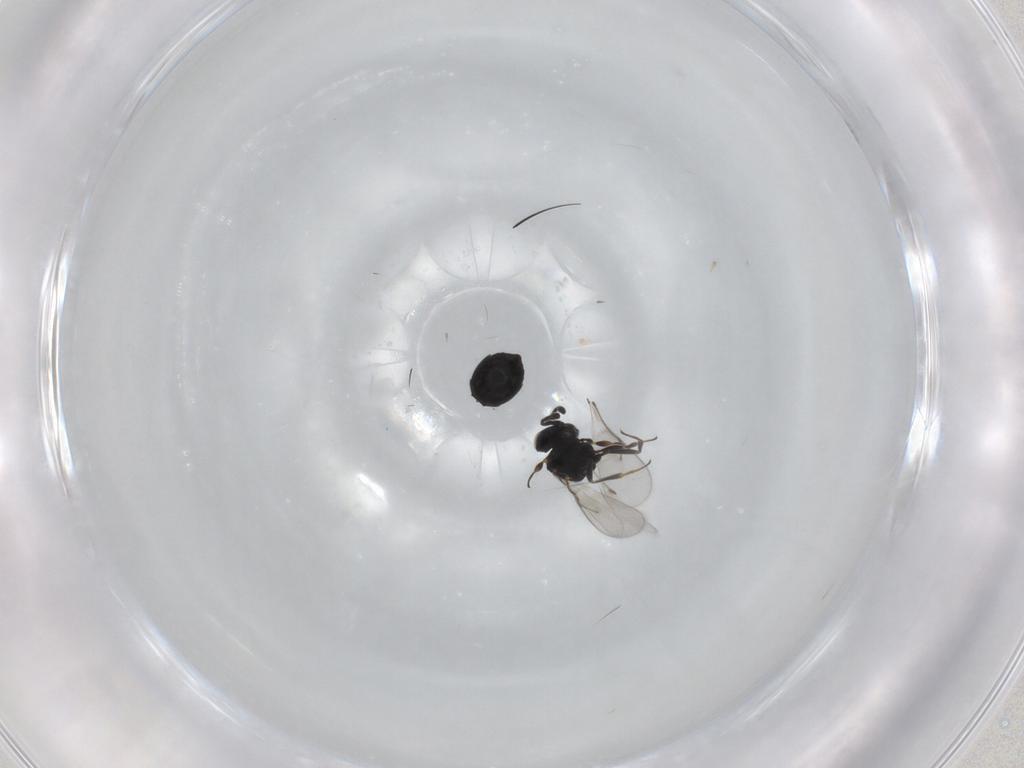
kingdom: Animalia
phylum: Arthropoda
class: Insecta
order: Hymenoptera
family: Scelionidae
